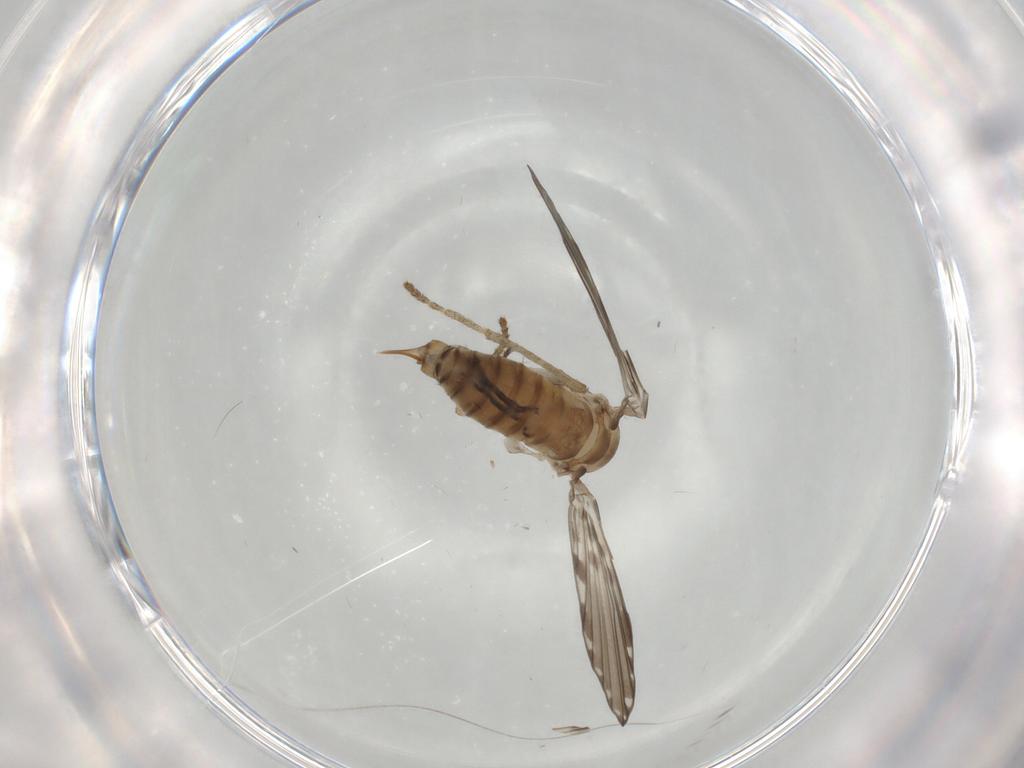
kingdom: Animalia
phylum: Arthropoda
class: Insecta
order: Diptera
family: Psychodidae
